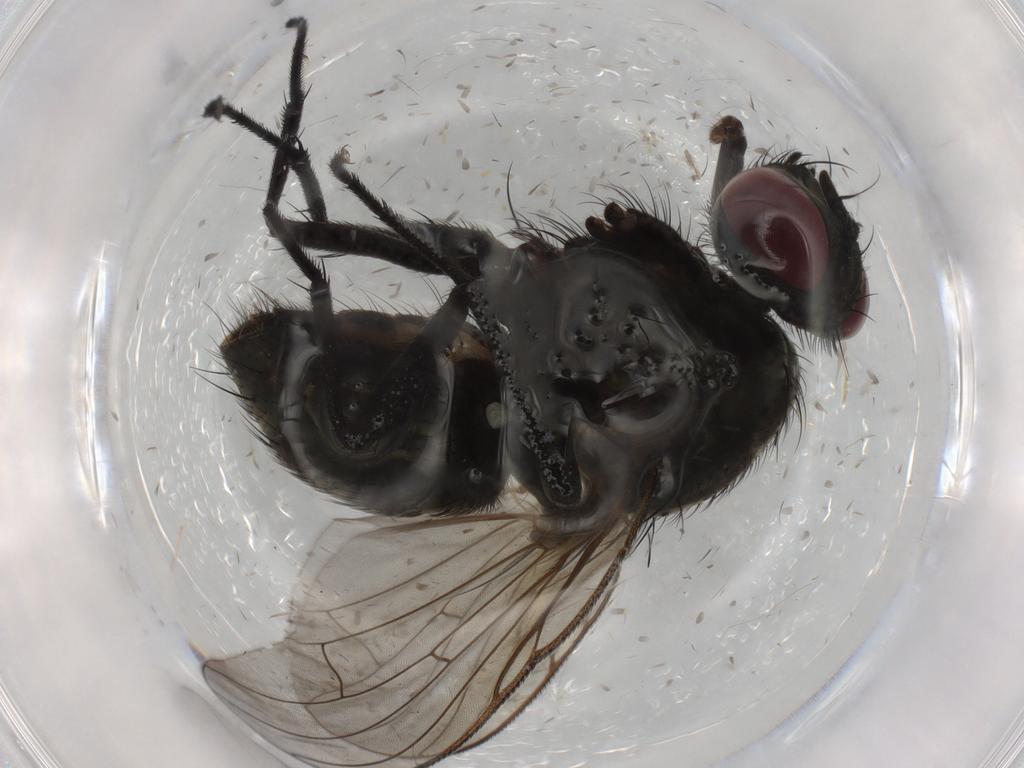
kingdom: Animalia
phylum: Arthropoda
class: Insecta
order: Diptera
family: Muscidae
